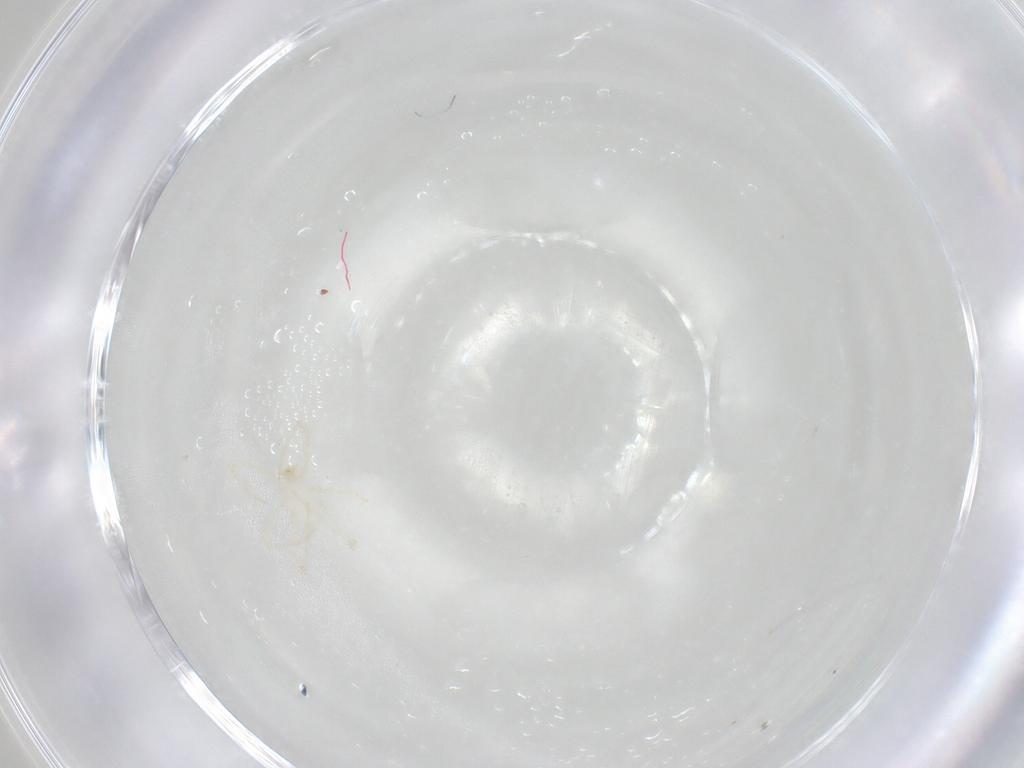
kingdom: Animalia
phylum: Arthropoda
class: Arachnida
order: Trombidiformes
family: Erythraeidae
